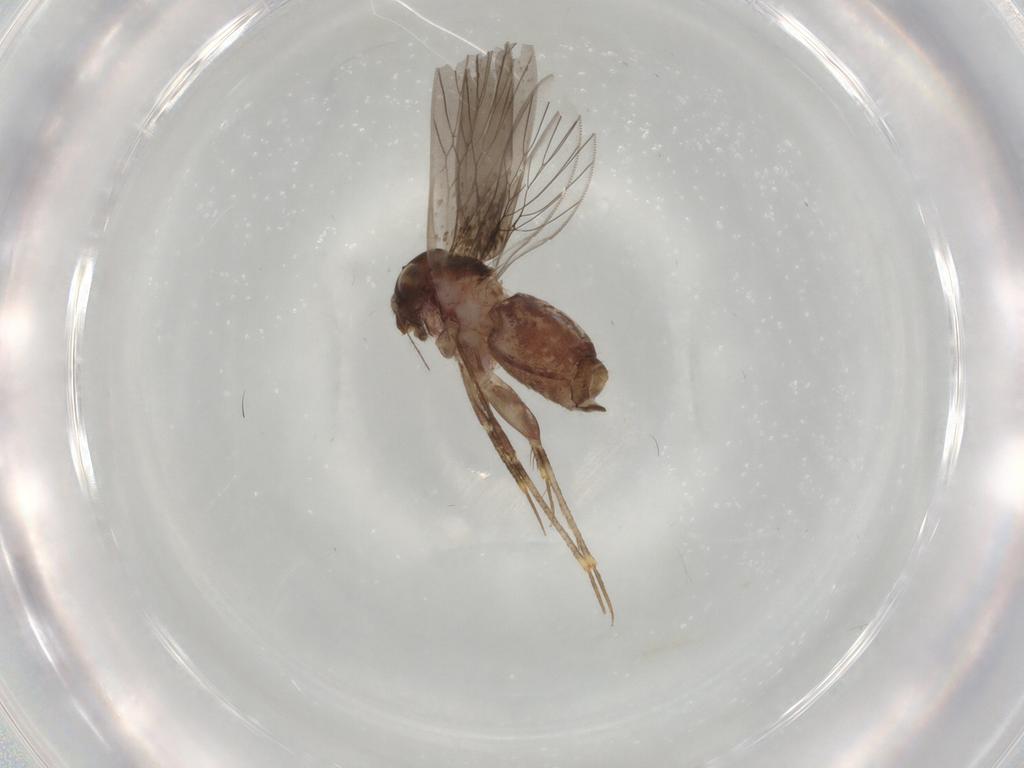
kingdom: Animalia
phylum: Arthropoda
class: Insecta
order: Psocodea
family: Lepidopsocidae
